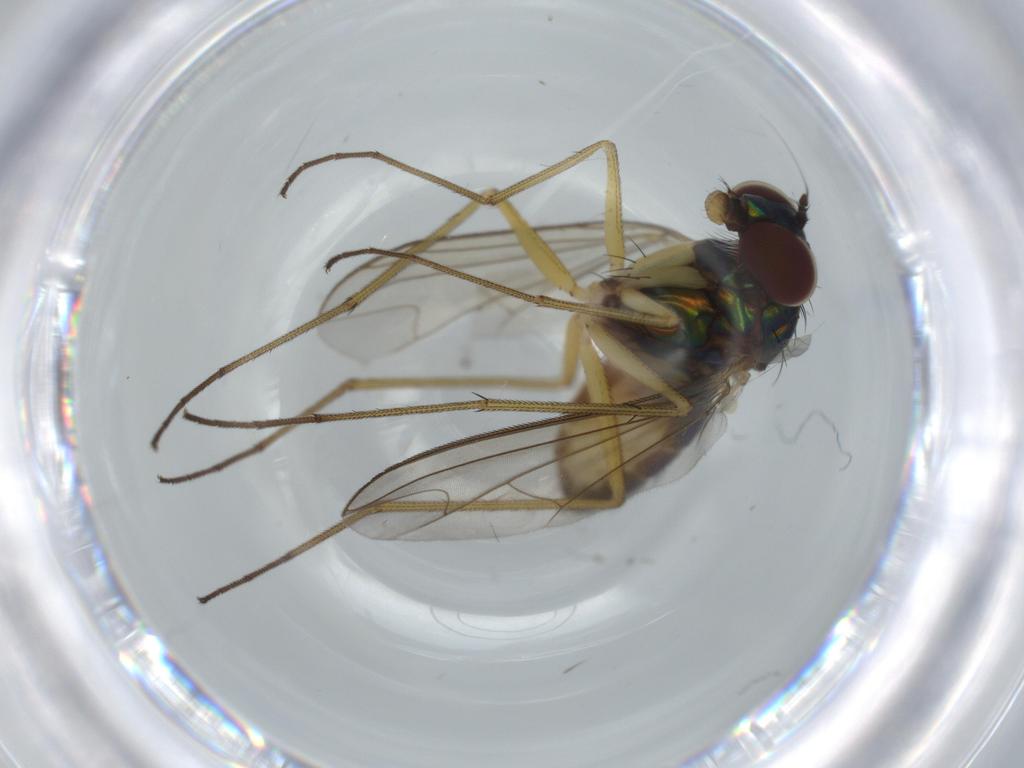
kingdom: Animalia
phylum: Arthropoda
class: Insecta
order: Diptera
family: Dolichopodidae
